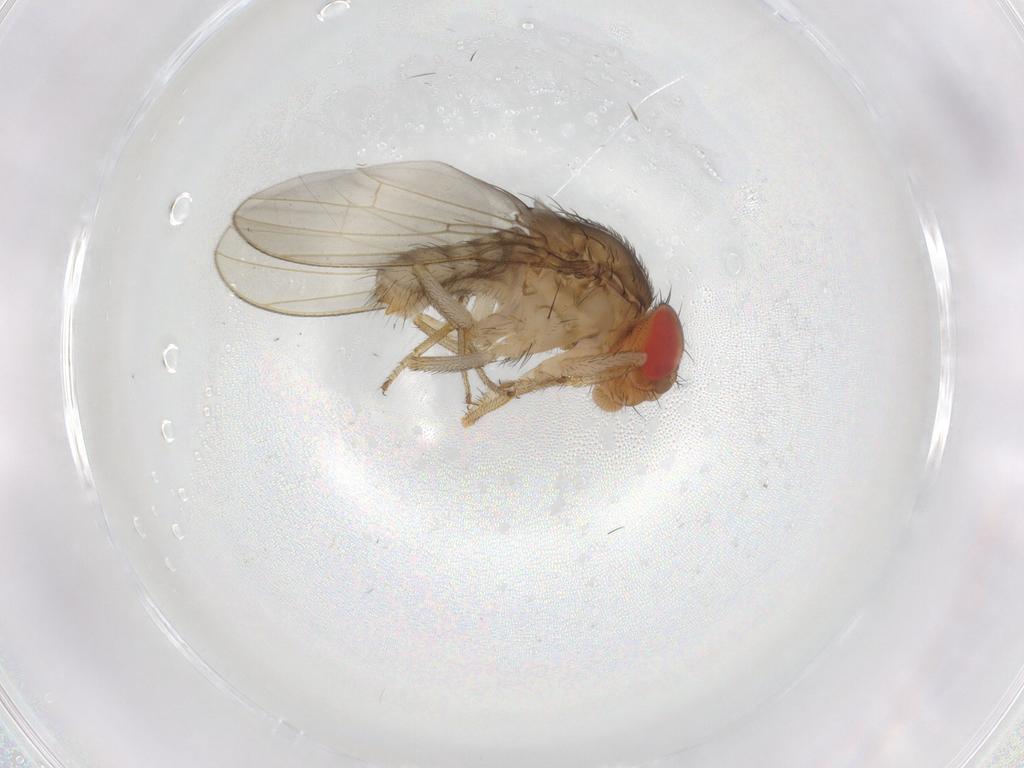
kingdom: Animalia
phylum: Arthropoda
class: Insecta
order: Diptera
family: Drosophilidae
